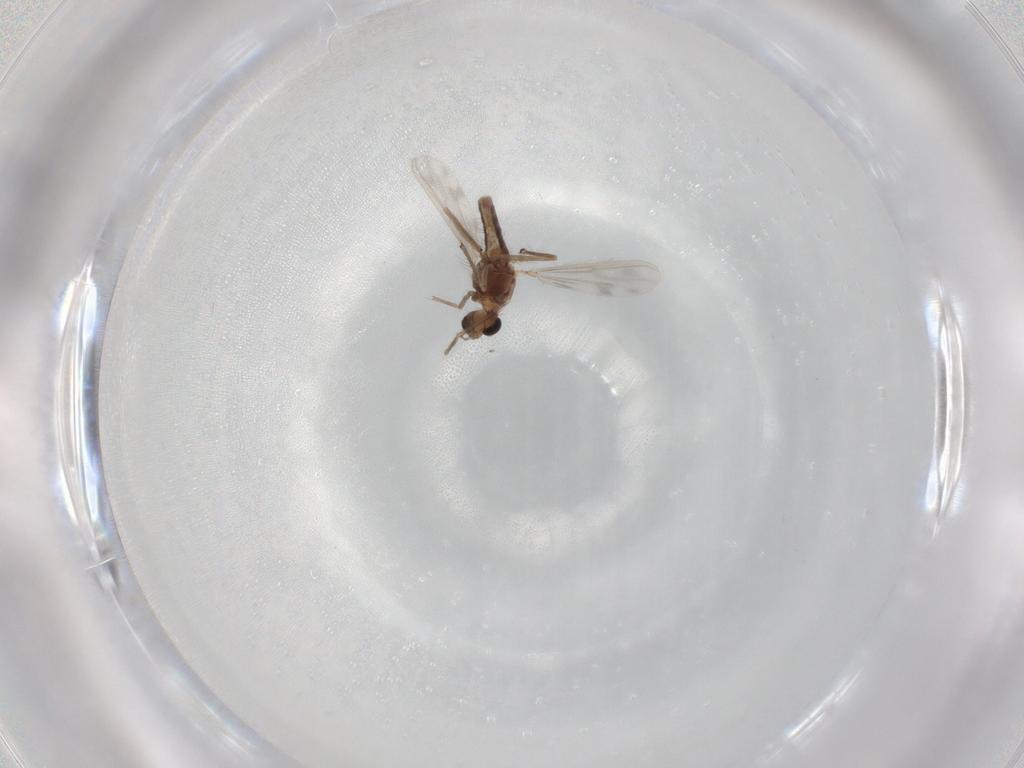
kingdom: Animalia
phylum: Arthropoda
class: Insecta
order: Diptera
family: Chironomidae
